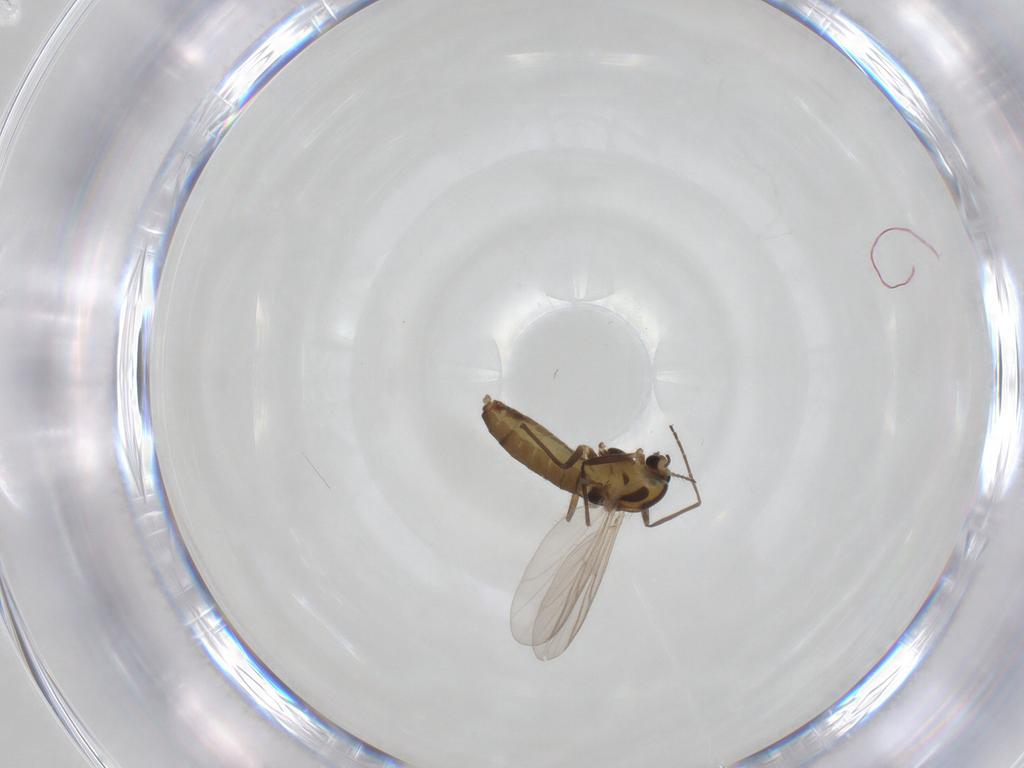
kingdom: Animalia
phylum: Arthropoda
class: Insecta
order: Diptera
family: Chironomidae
